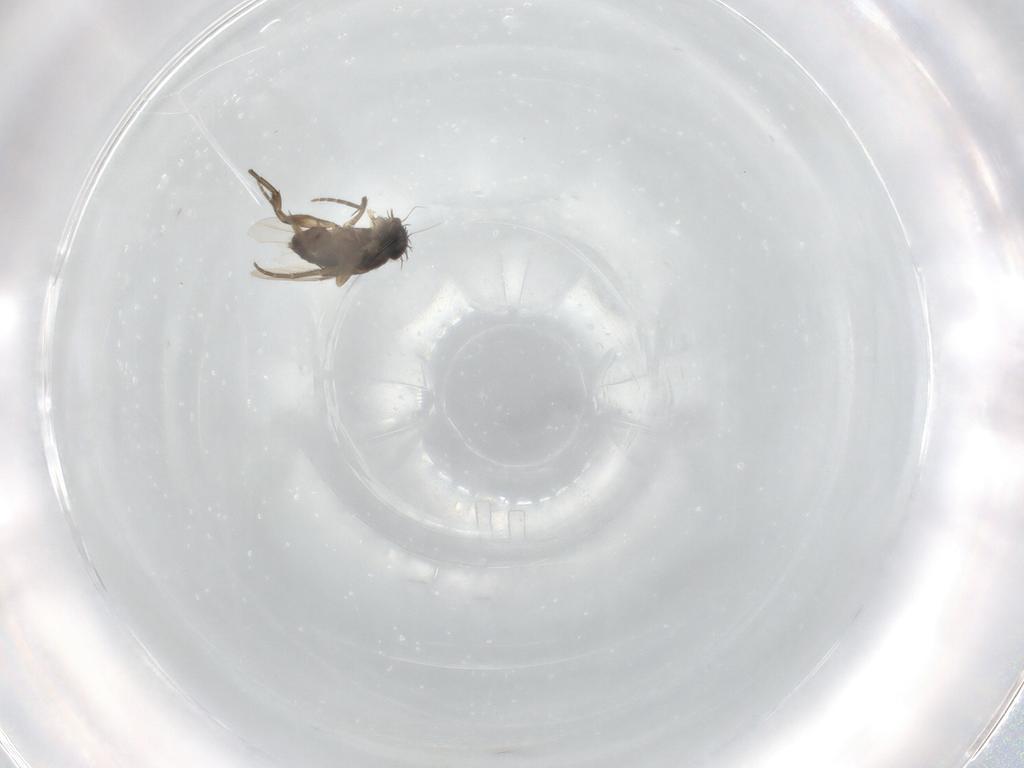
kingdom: Animalia
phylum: Arthropoda
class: Insecta
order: Diptera
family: Phoridae
